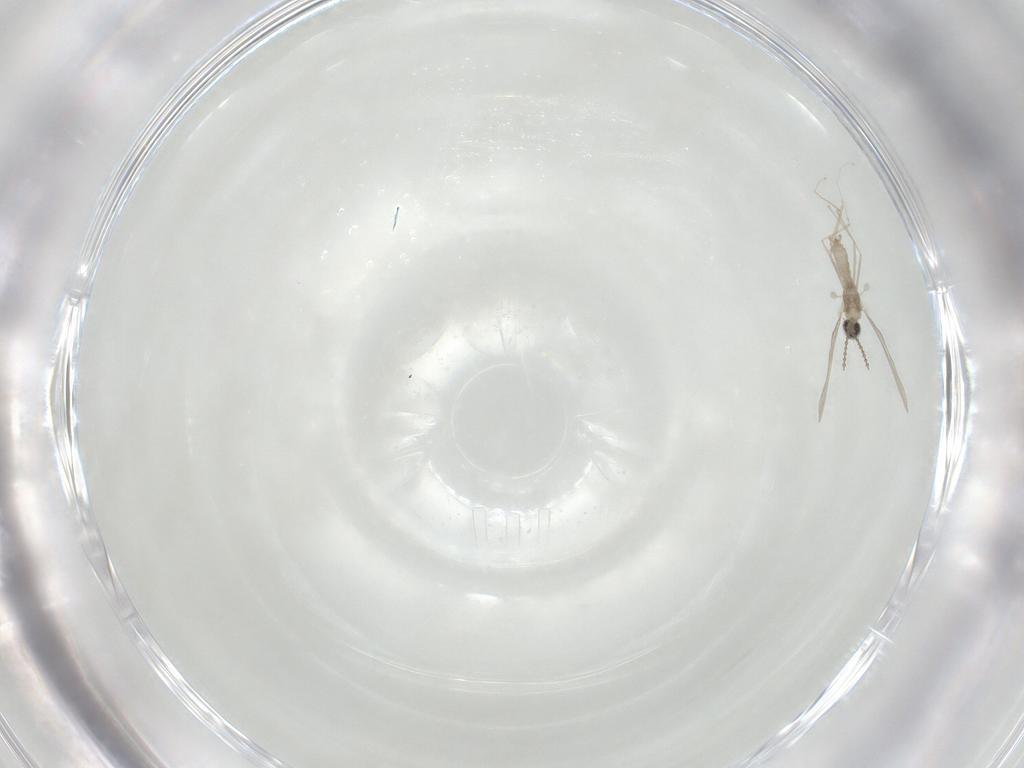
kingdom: Animalia
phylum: Arthropoda
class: Insecta
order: Diptera
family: Cecidomyiidae
